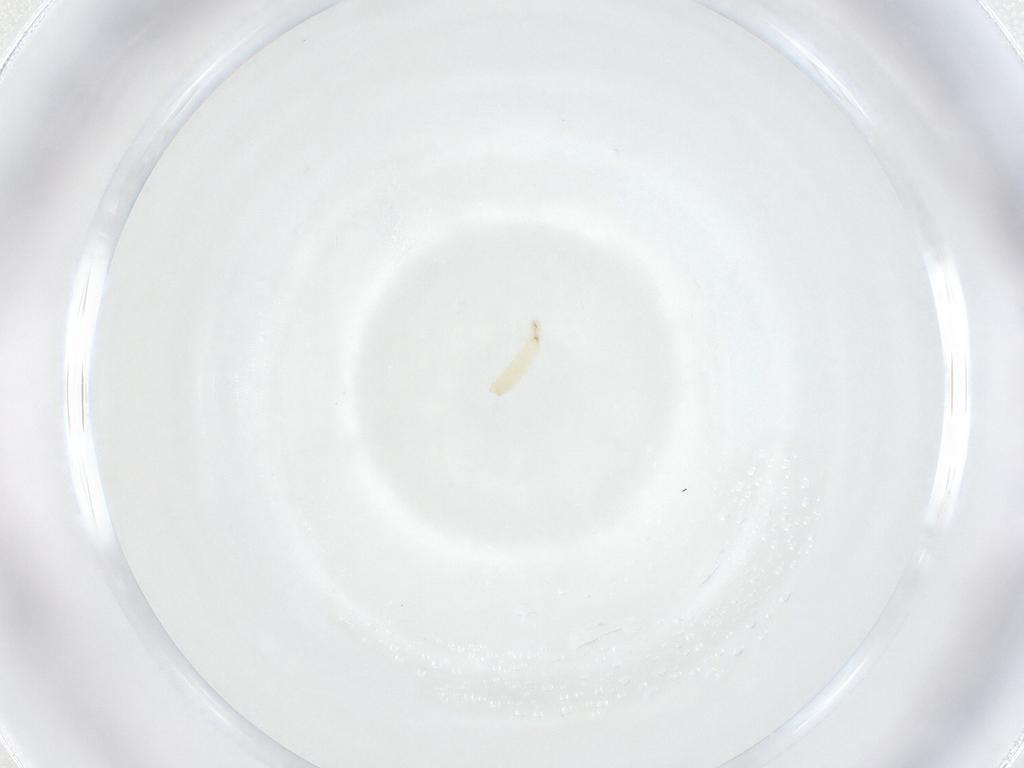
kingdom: Animalia
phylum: Arthropoda
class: Insecta
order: Diptera
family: Sarcophagidae
